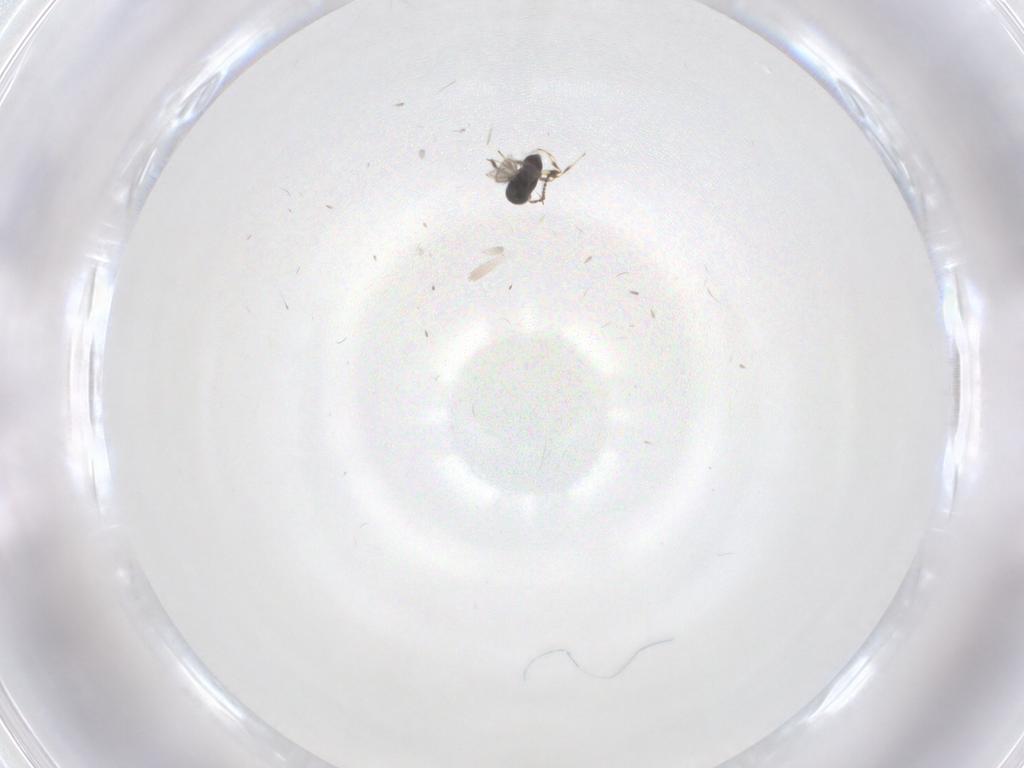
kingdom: Animalia
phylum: Arthropoda
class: Insecta
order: Hymenoptera
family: Scelionidae
